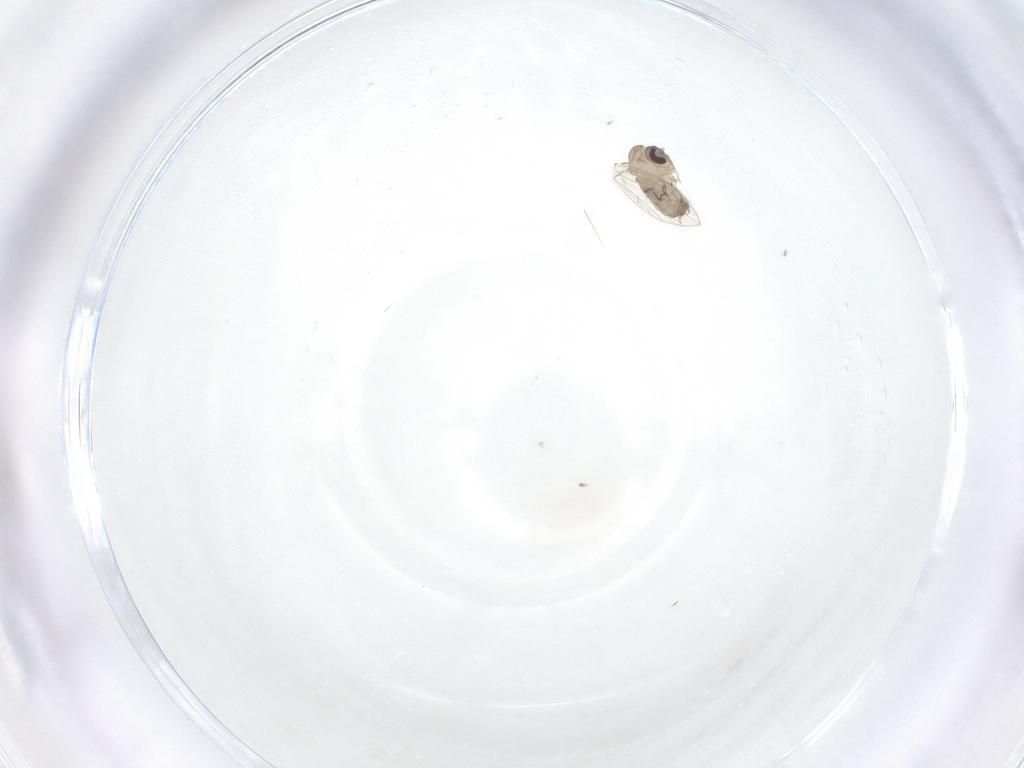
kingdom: Animalia
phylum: Arthropoda
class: Insecta
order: Diptera
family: Psychodidae
